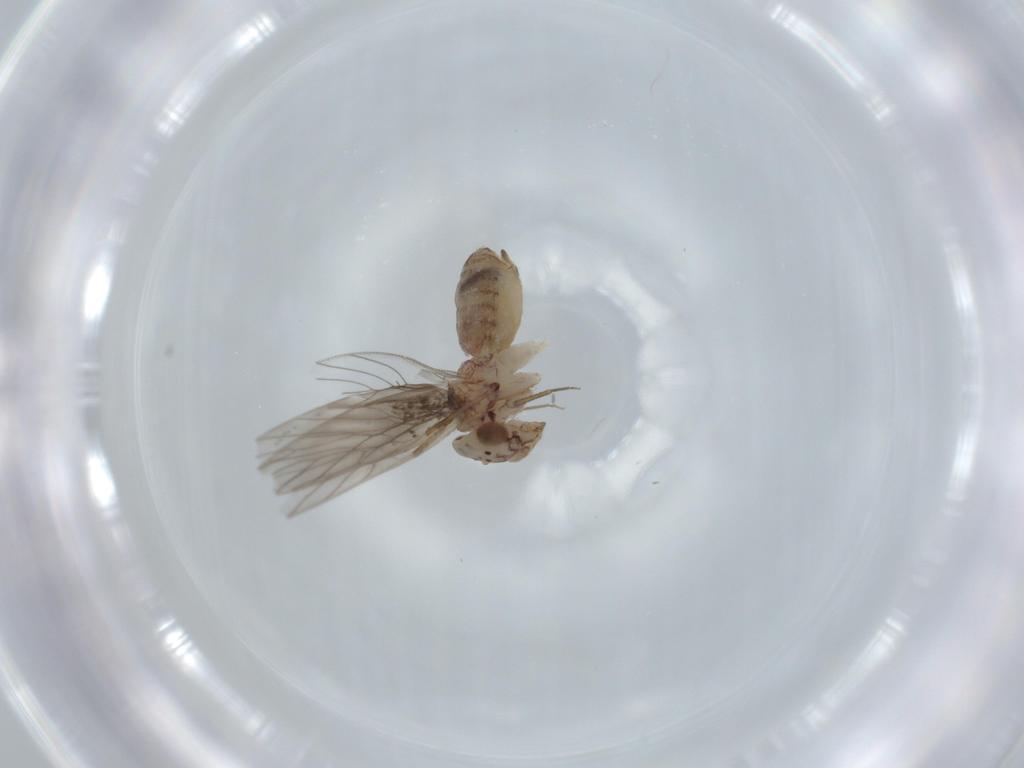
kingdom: Animalia
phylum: Arthropoda
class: Insecta
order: Psocodea
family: Lepidopsocidae
